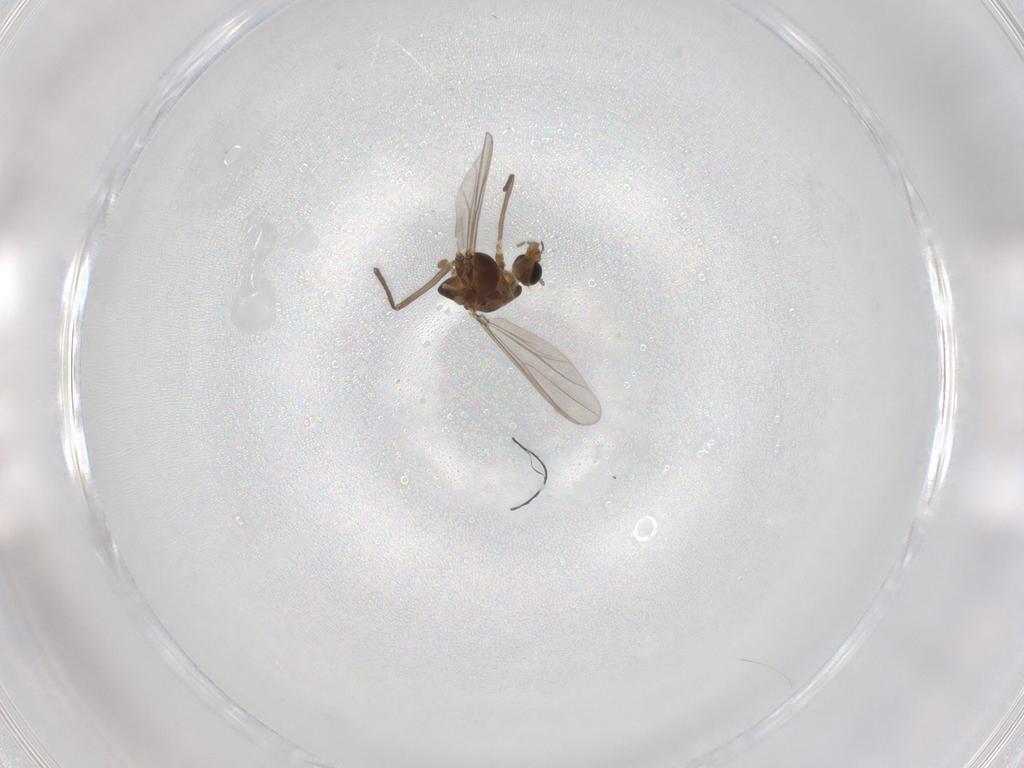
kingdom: Animalia
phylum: Arthropoda
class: Insecta
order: Diptera
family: Chironomidae
